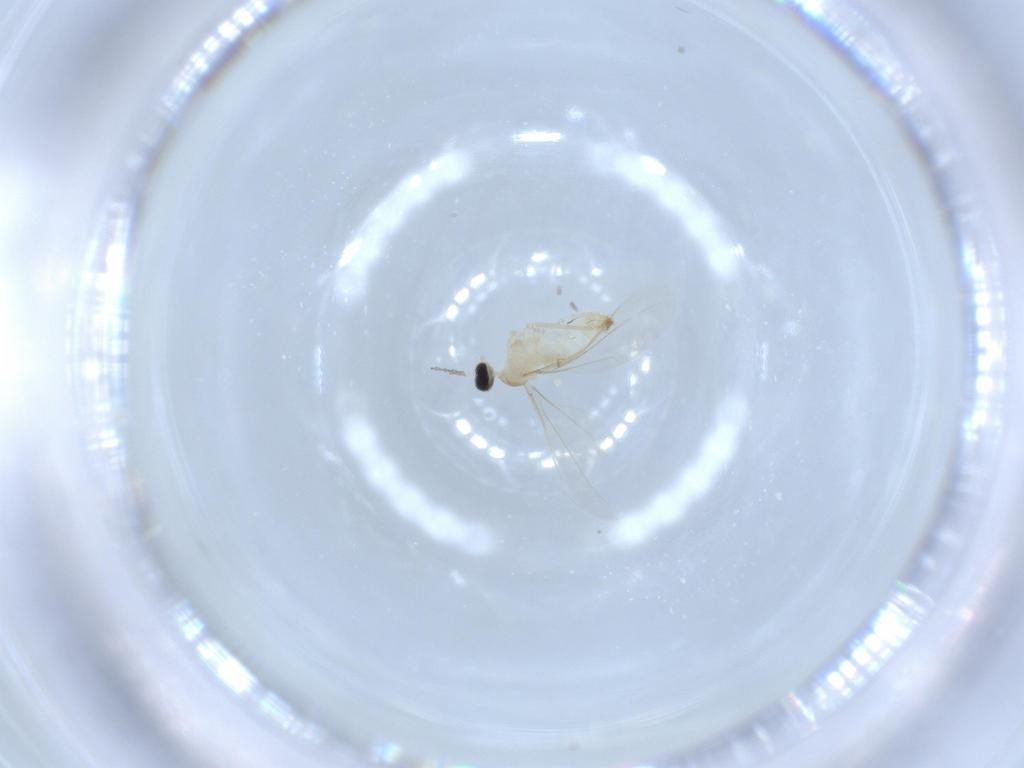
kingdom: Animalia
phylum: Arthropoda
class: Insecta
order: Diptera
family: Cecidomyiidae
